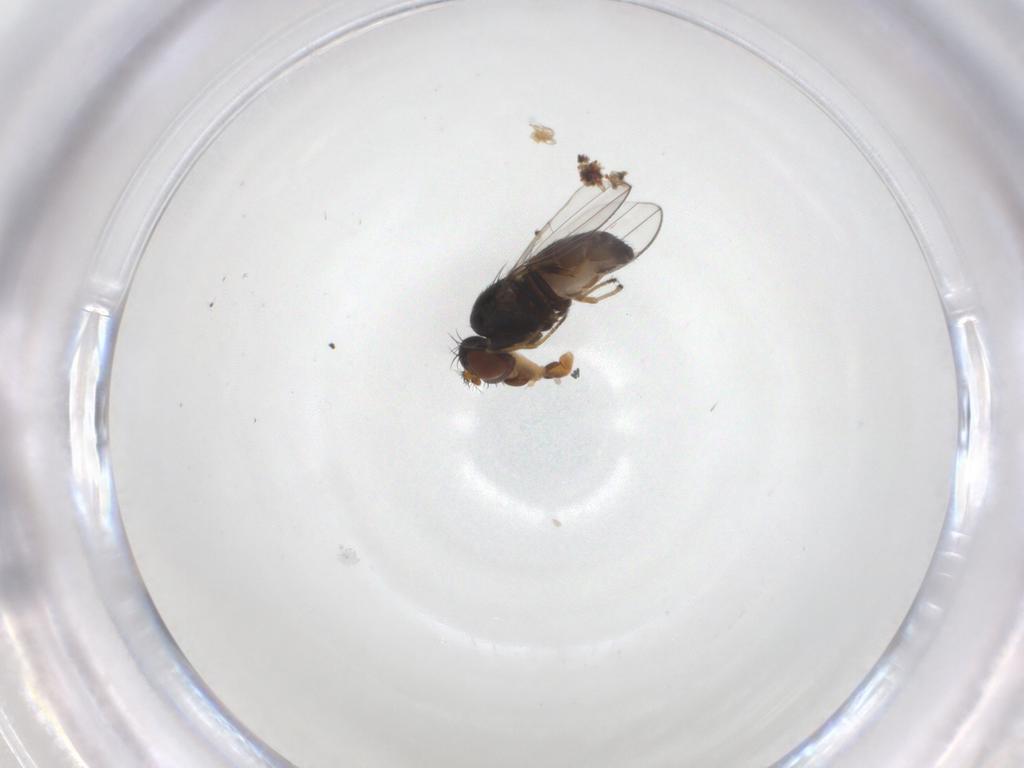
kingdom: Animalia
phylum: Arthropoda
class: Insecta
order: Diptera
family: Ephydridae
